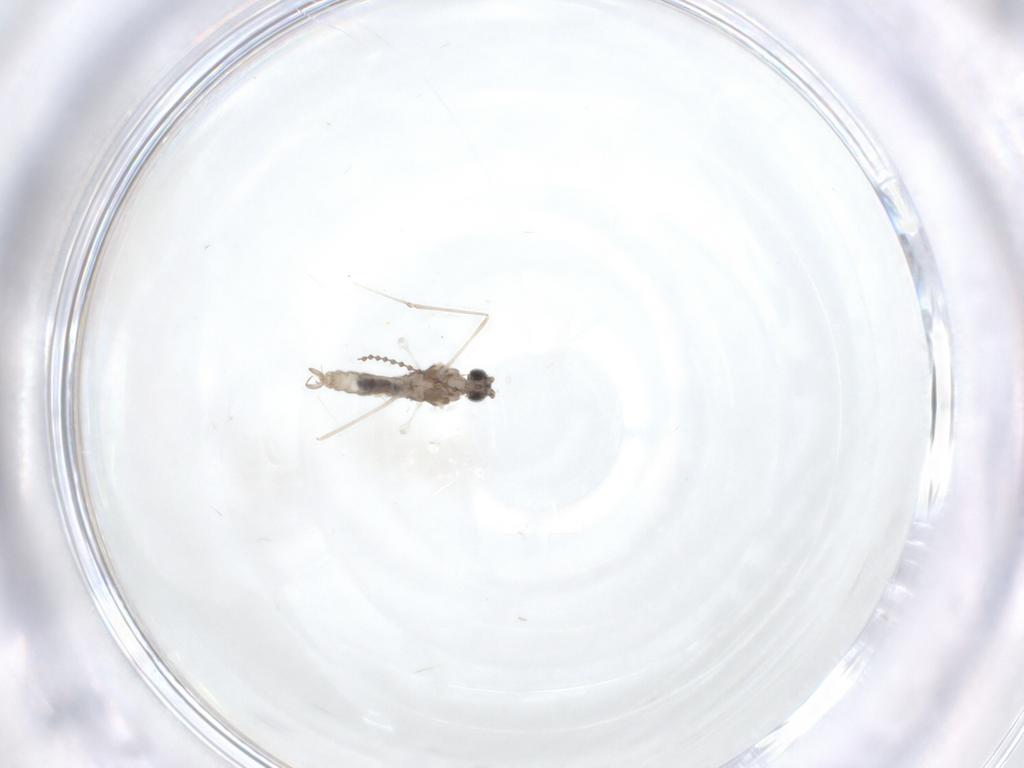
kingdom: Animalia
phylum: Arthropoda
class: Insecta
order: Diptera
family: Cecidomyiidae
